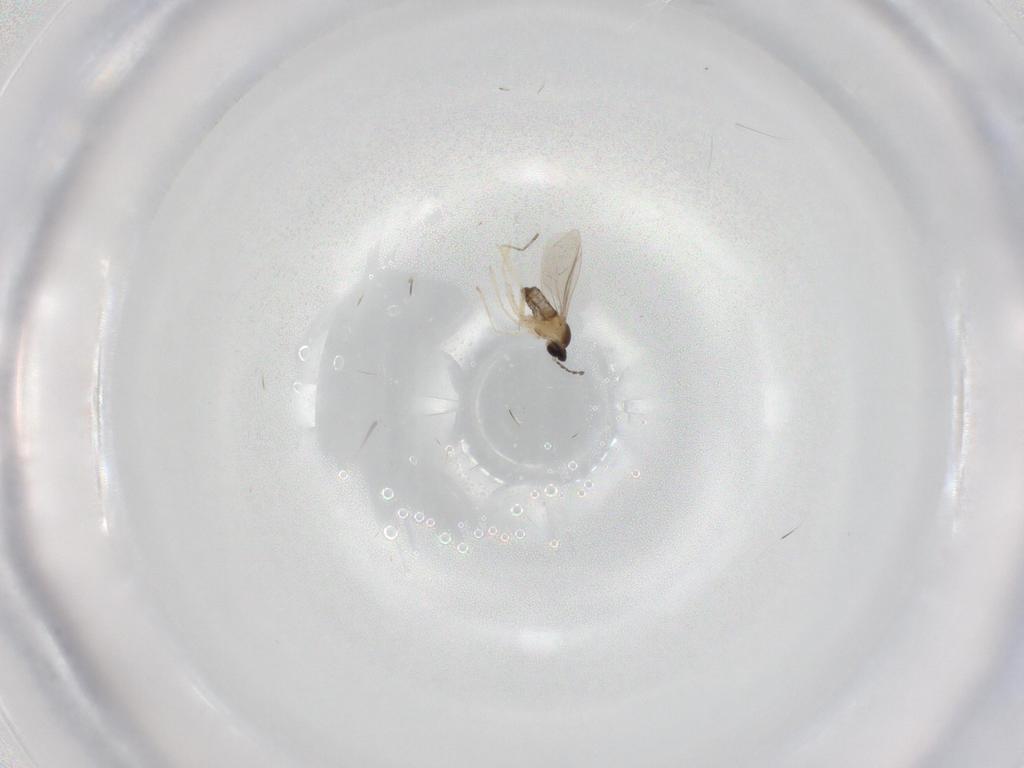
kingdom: Animalia
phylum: Arthropoda
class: Insecta
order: Diptera
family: Cecidomyiidae
